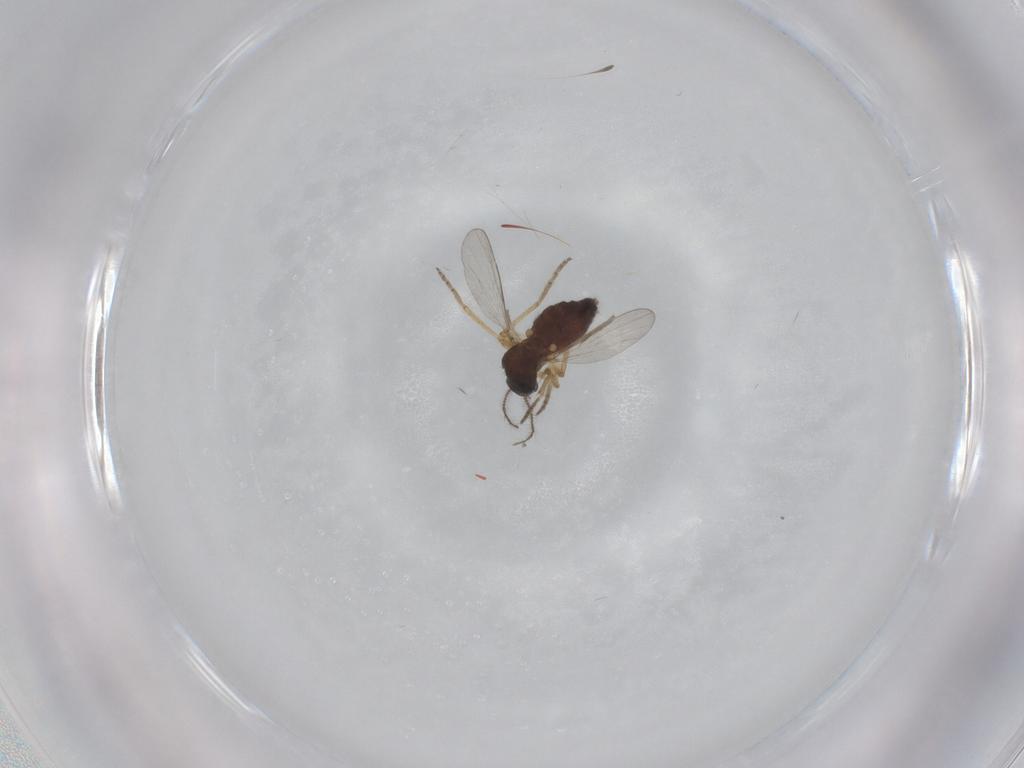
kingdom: Animalia
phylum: Arthropoda
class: Insecta
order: Diptera
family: Ceratopogonidae
